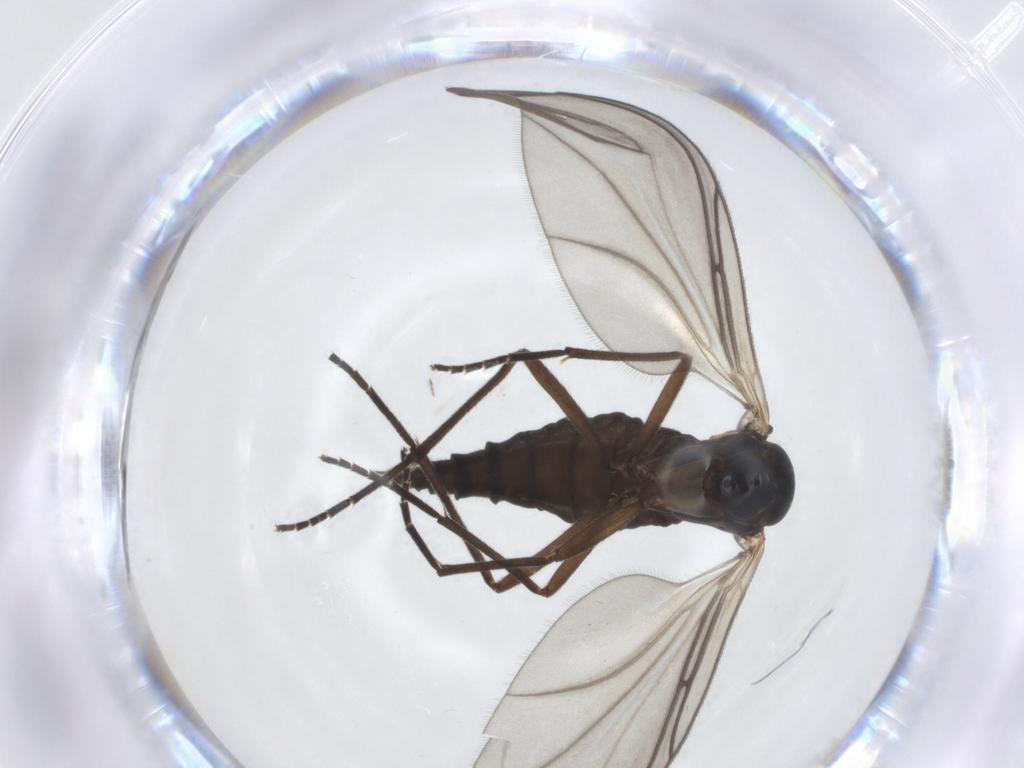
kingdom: Animalia
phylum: Arthropoda
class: Insecta
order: Diptera
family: Sciaridae
